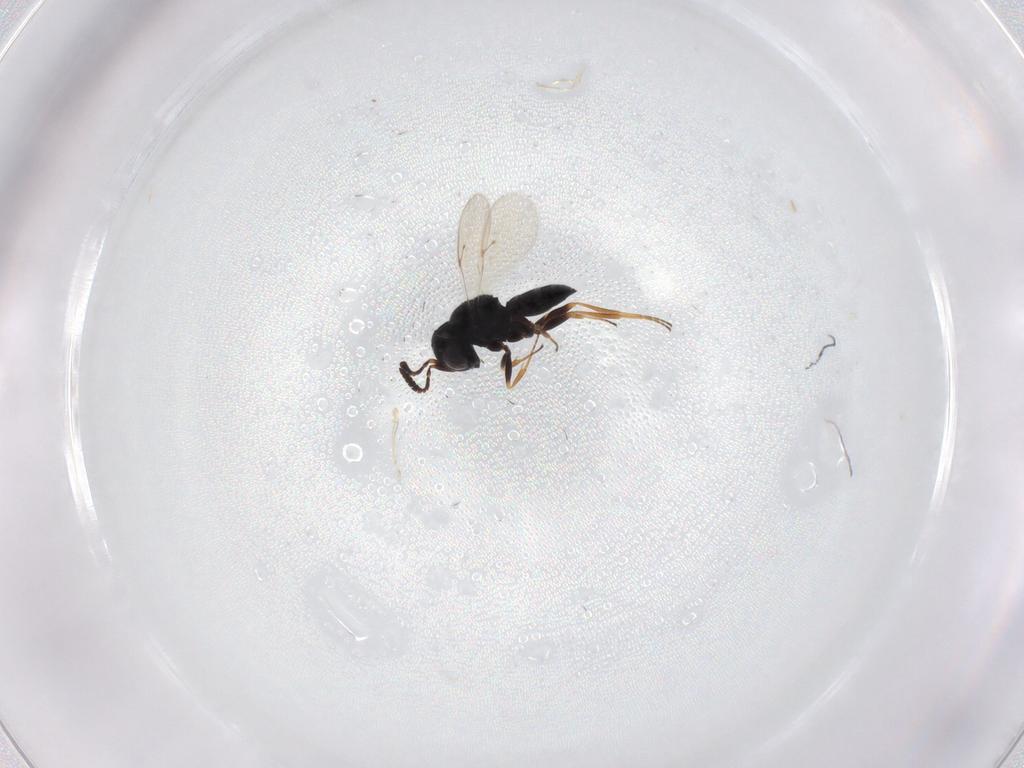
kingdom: Animalia
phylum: Arthropoda
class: Insecta
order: Hymenoptera
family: Scelionidae
